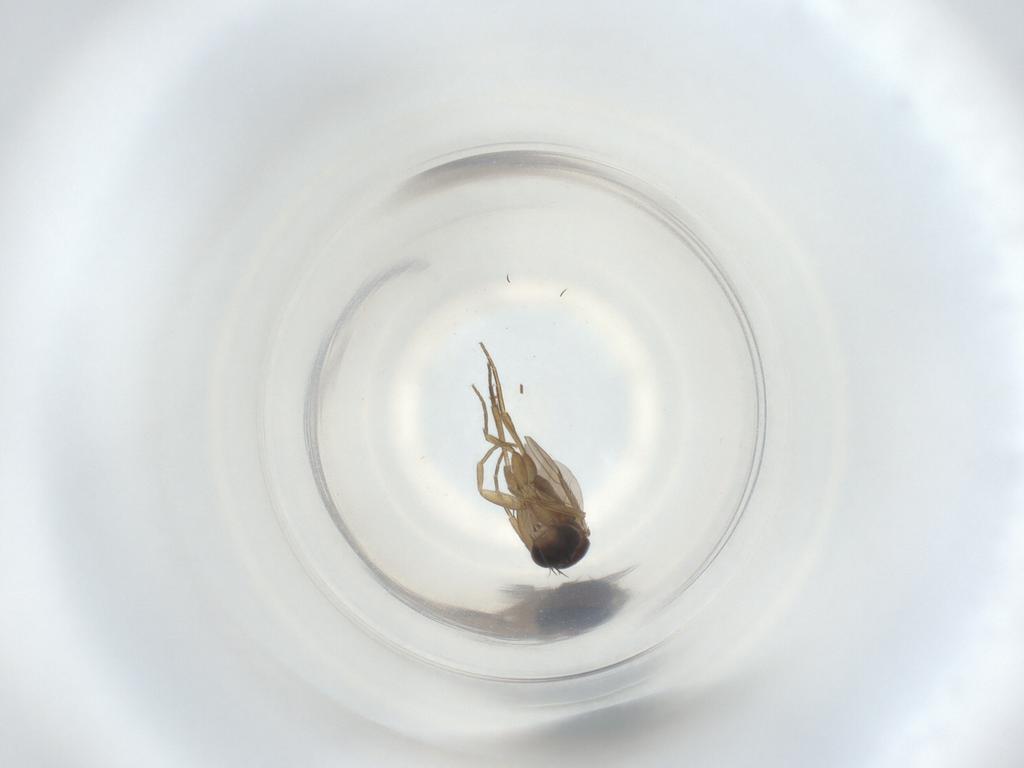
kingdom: Animalia
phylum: Arthropoda
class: Insecta
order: Diptera
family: Phoridae
